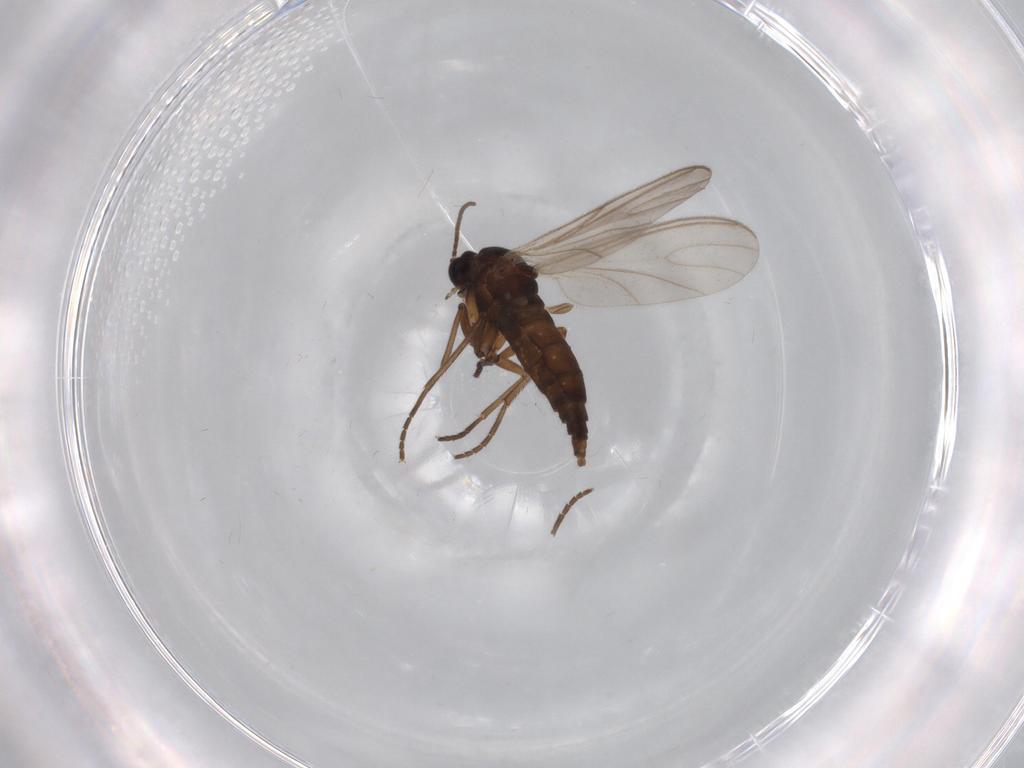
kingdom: Animalia
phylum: Arthropoda
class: Insecta
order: Diptera
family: Sciaridae
